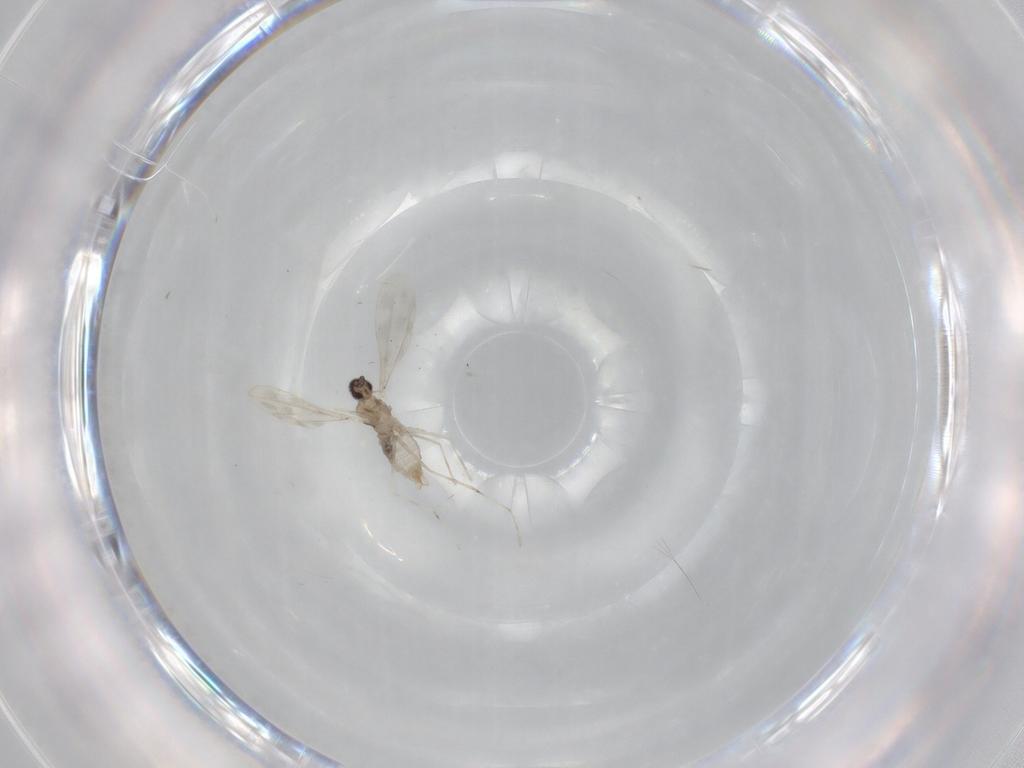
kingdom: Animalia
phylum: Arthropoda
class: Insecta
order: Diptera
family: Cecidomyiidae
